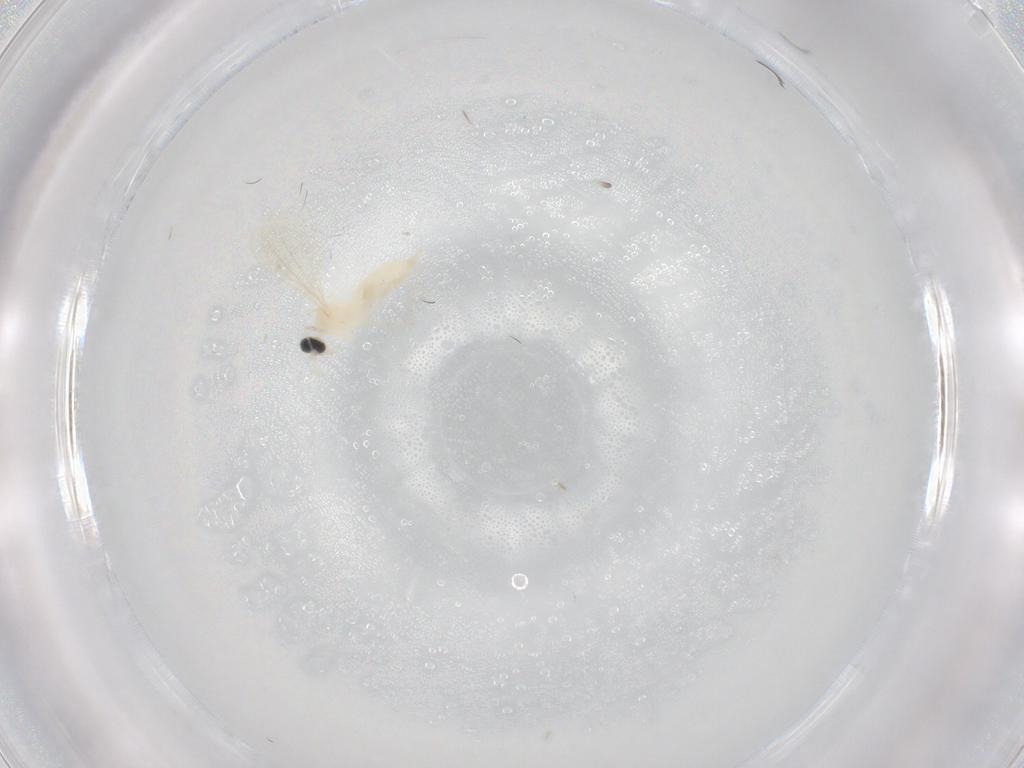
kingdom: Animalia
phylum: Arthropoda
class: Insecta
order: Diptera
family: Cecidomyiidae
